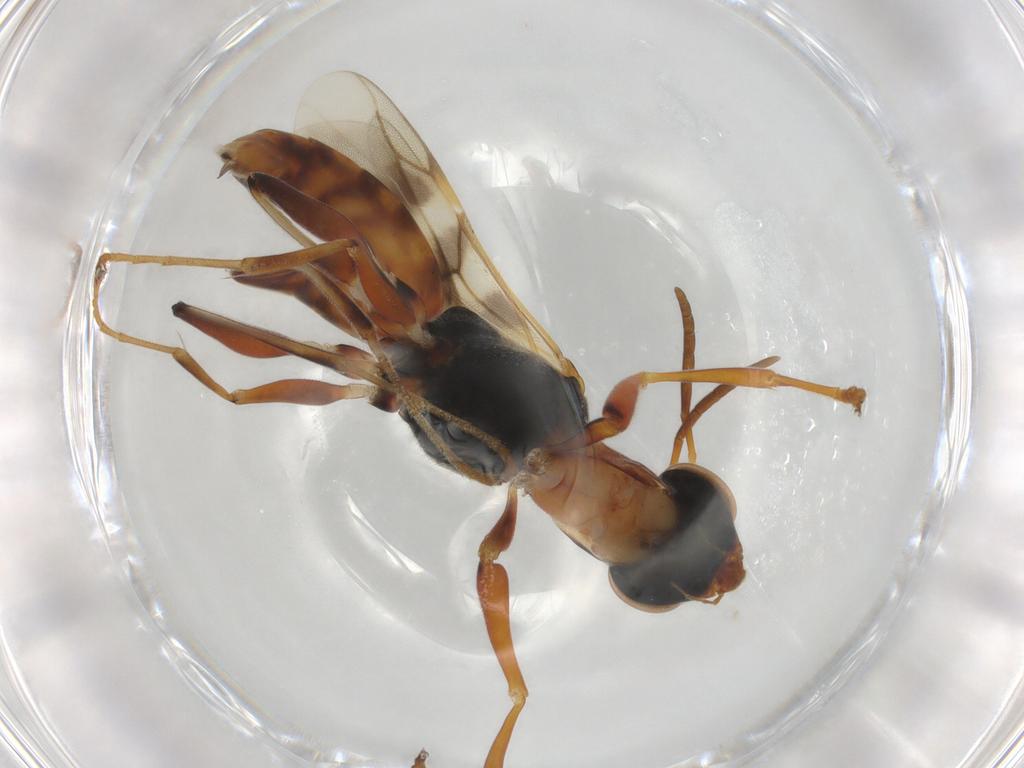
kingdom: Animalia
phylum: Arthropoda
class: Insecta
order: Hymenoptera
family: Dryinidae
